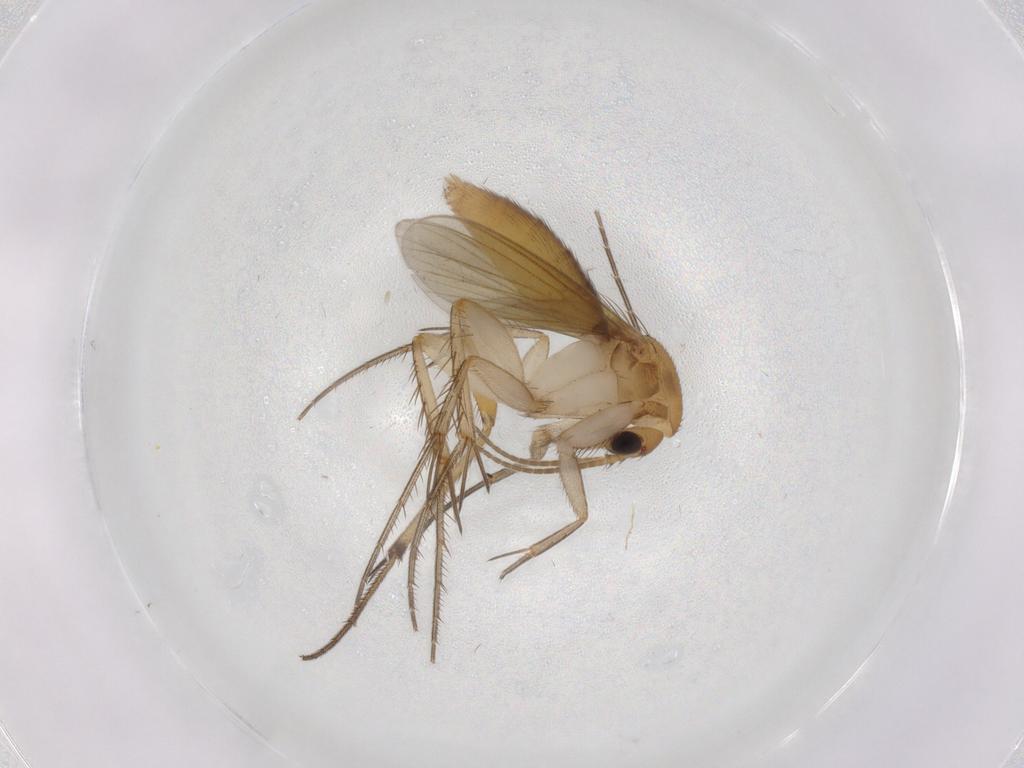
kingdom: Animalia
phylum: Arthropoda
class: Insecta
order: Diptera
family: Mycetophilidae
